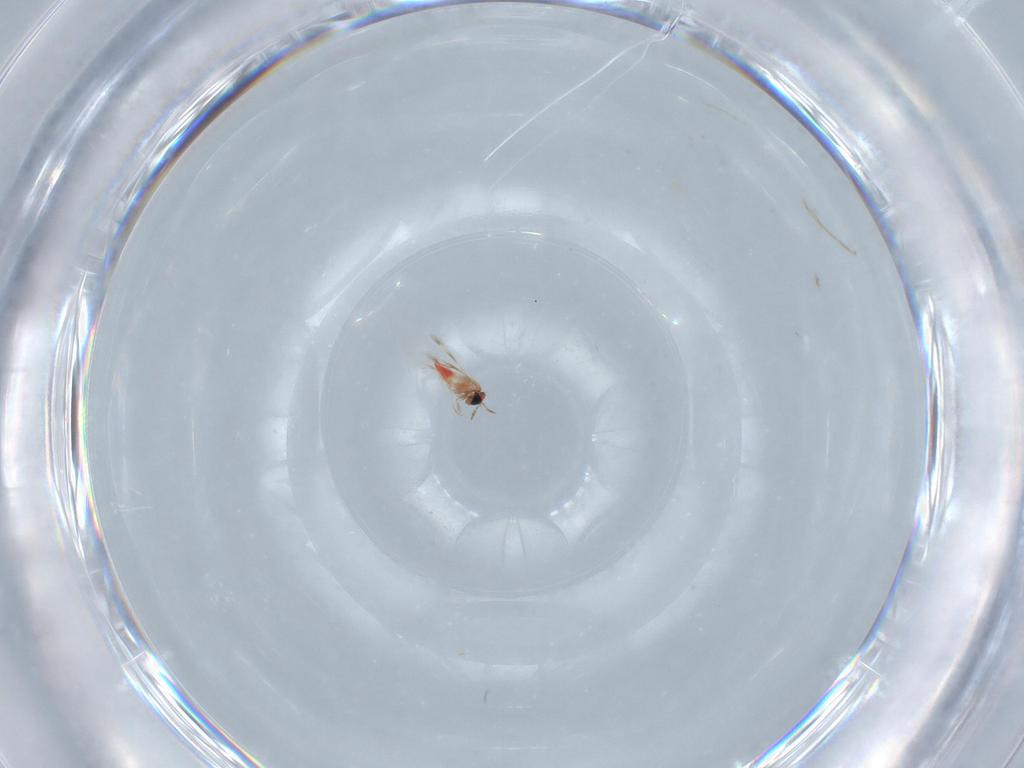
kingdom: Animalia
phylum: Arthropoda
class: Insecta
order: Hymenoptera
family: Trichogrammatidae
